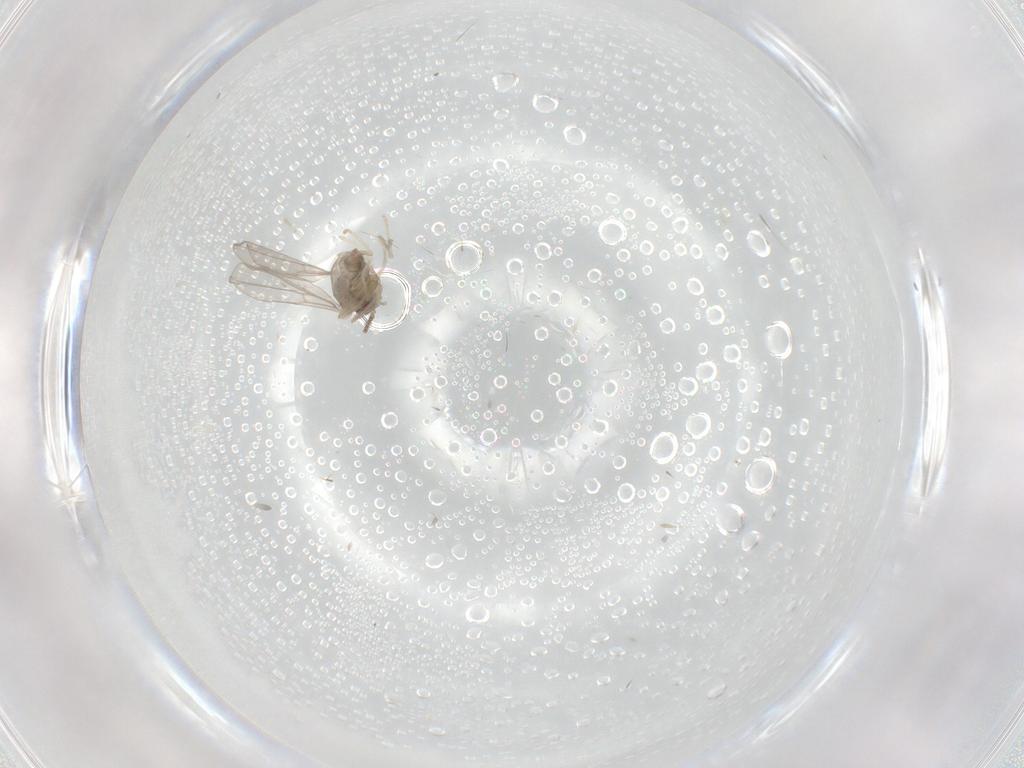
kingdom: Animalia
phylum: Arthropoda
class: Insecta
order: Diptera
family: Cecidomyiidae
